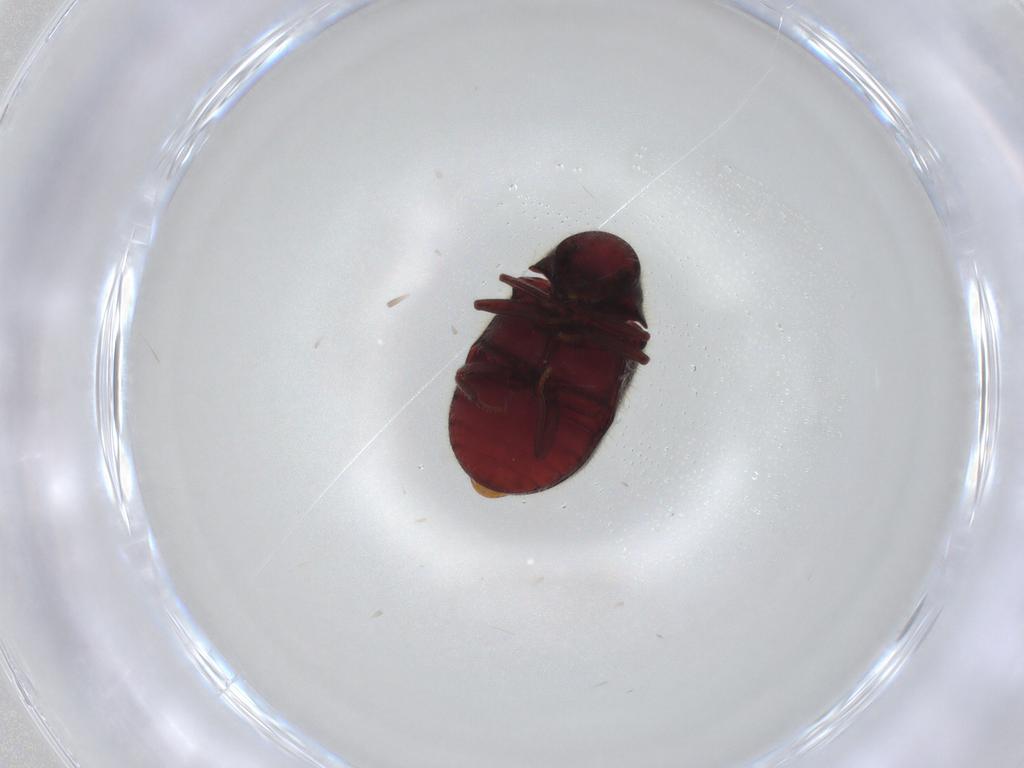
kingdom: Animalia
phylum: Arthropoda
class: Insecta
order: Coleoptera
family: Ptinidae
